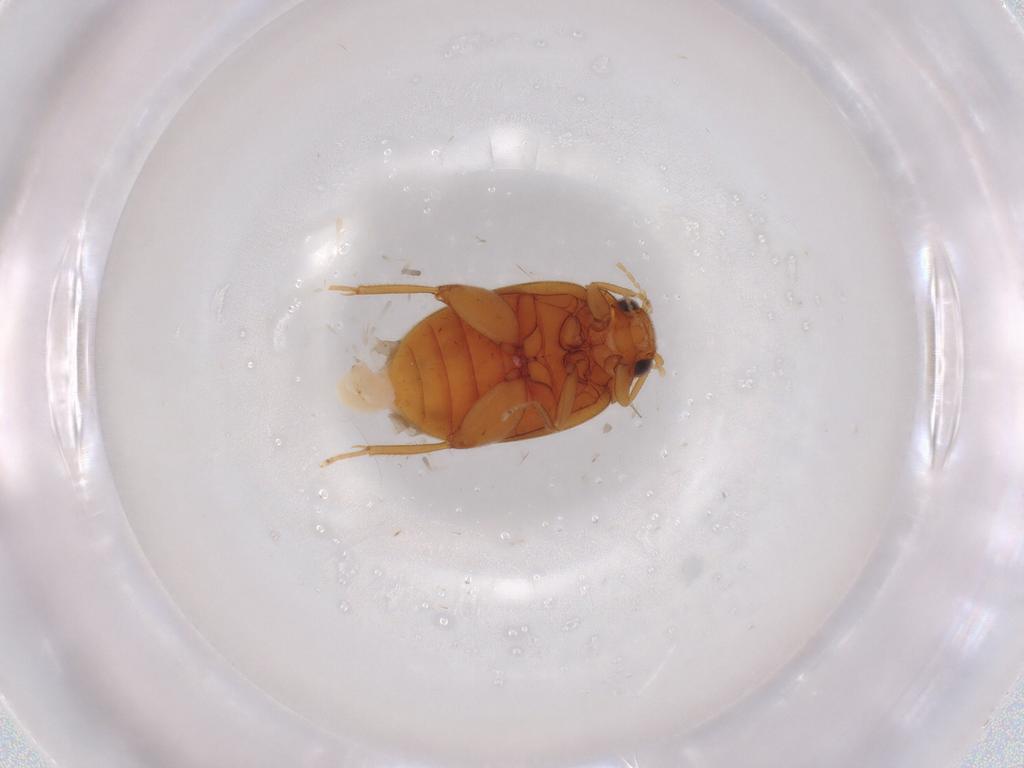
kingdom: Animalia
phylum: Arthropoda
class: Insecta
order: Coleoptera
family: Scirtidae
